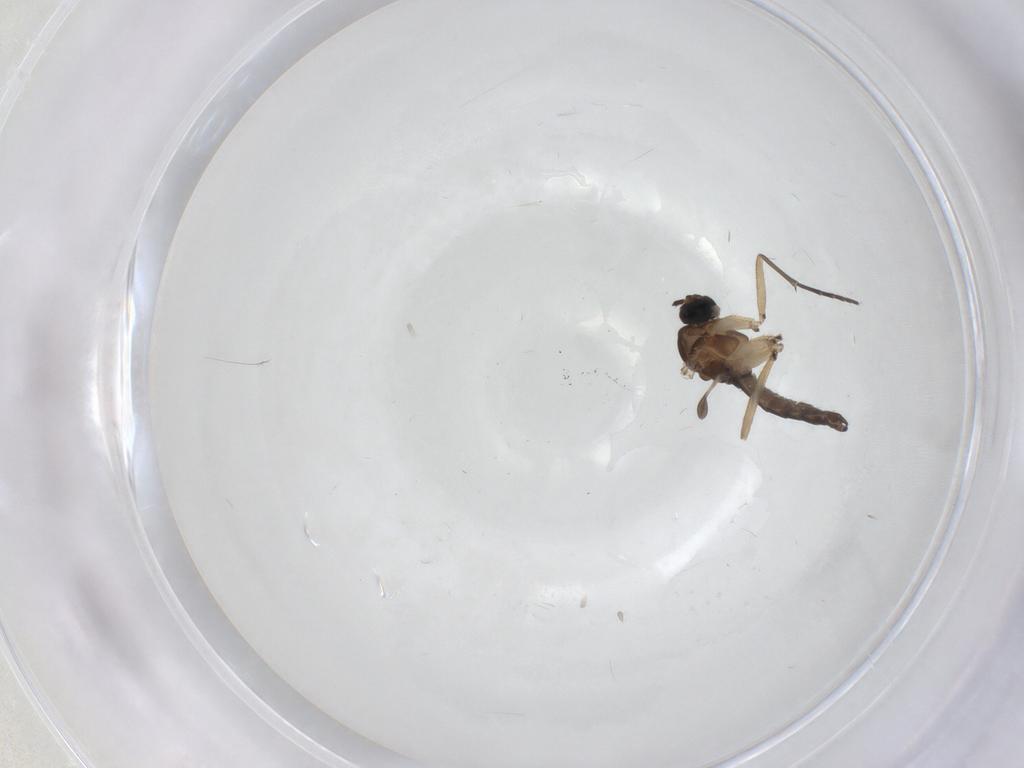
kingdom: Animalia
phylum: Arthropoda
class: Insecta
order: Diptera
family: Sciaridae
